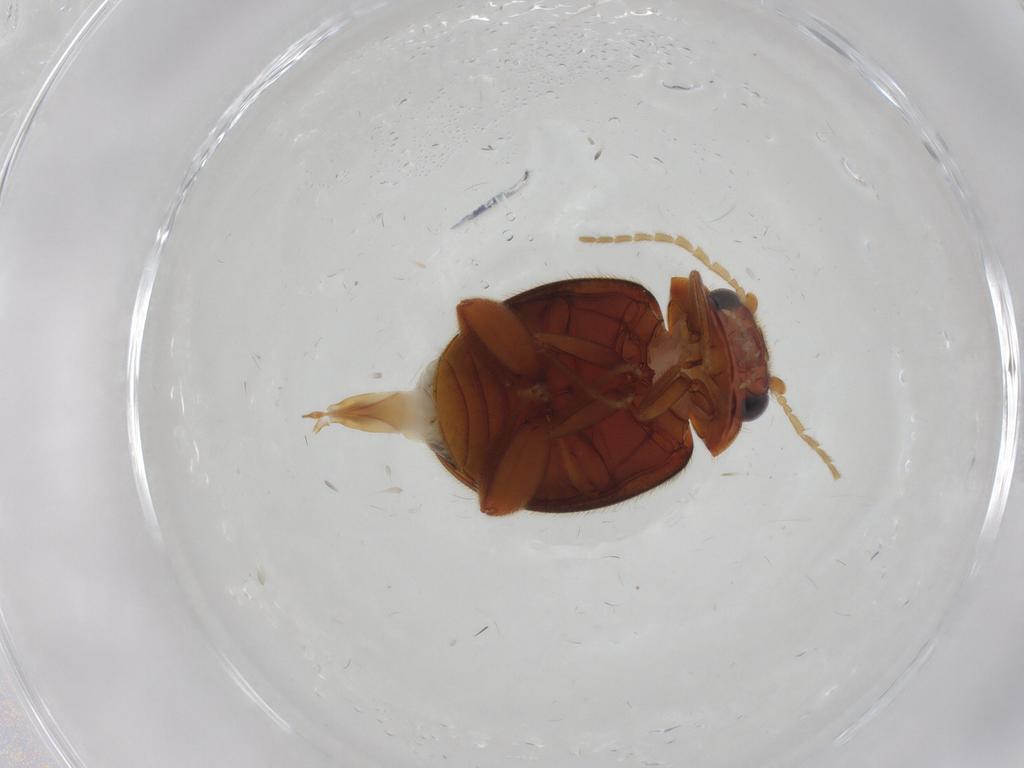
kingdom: Animalia
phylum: Arthropoda
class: Insecta
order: Coleoptera
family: Scirtidae
